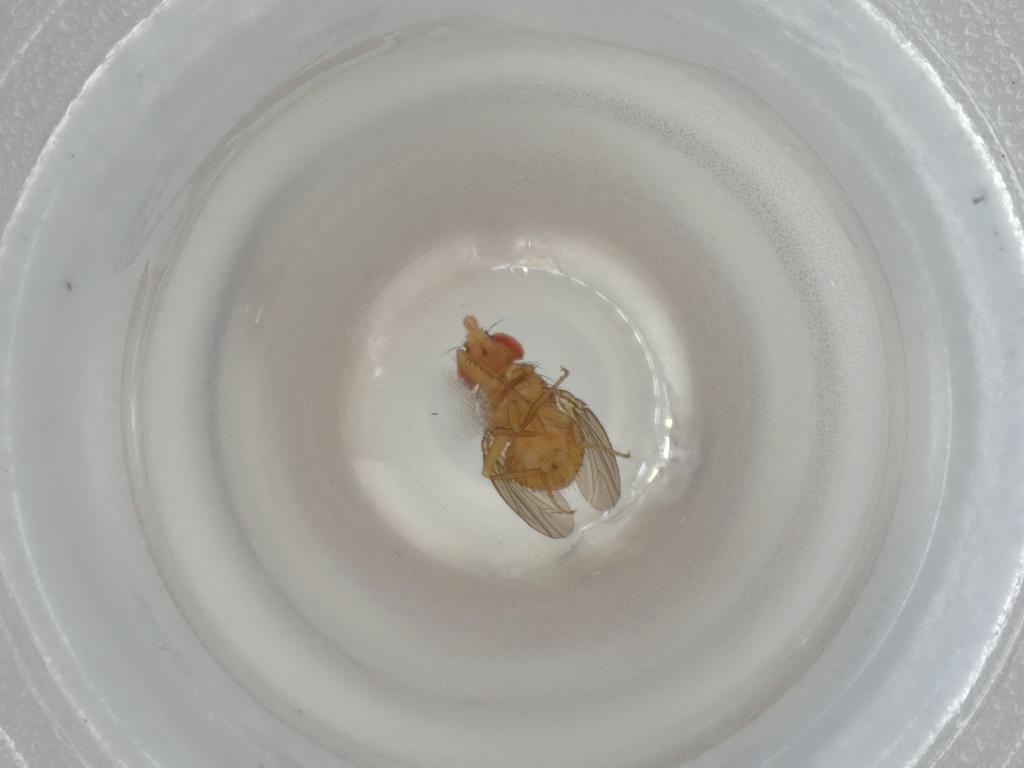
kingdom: Animalia
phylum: Arthropoda
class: Insecta
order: Diptera
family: Drosophilidae
